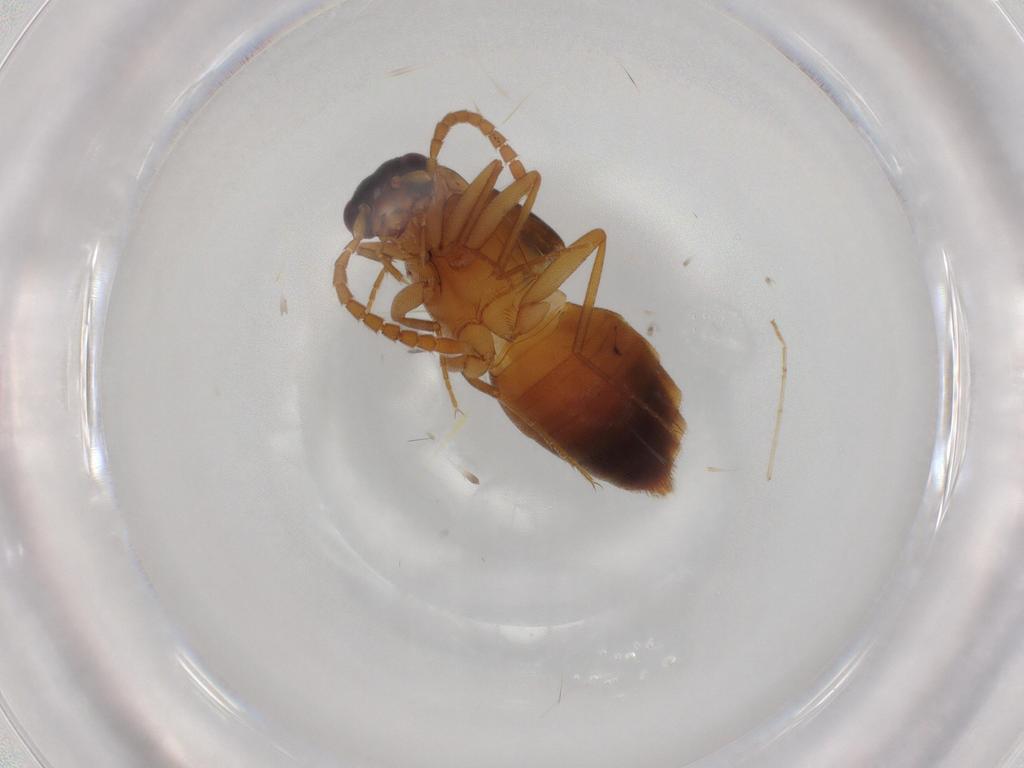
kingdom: Animalia
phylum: Arthropoda
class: Insecta
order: Coleoptera
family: Staphylinidae
